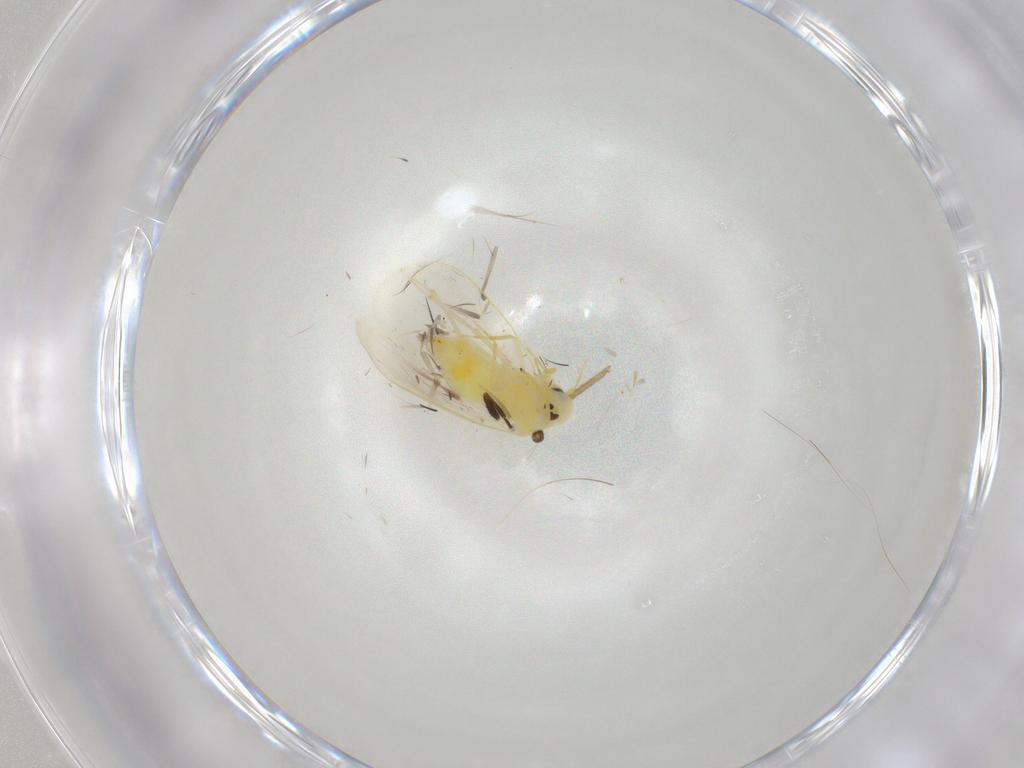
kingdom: Animalia
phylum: Arthropoda
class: Insecta
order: Hemiptera
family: Aleyrodidae
